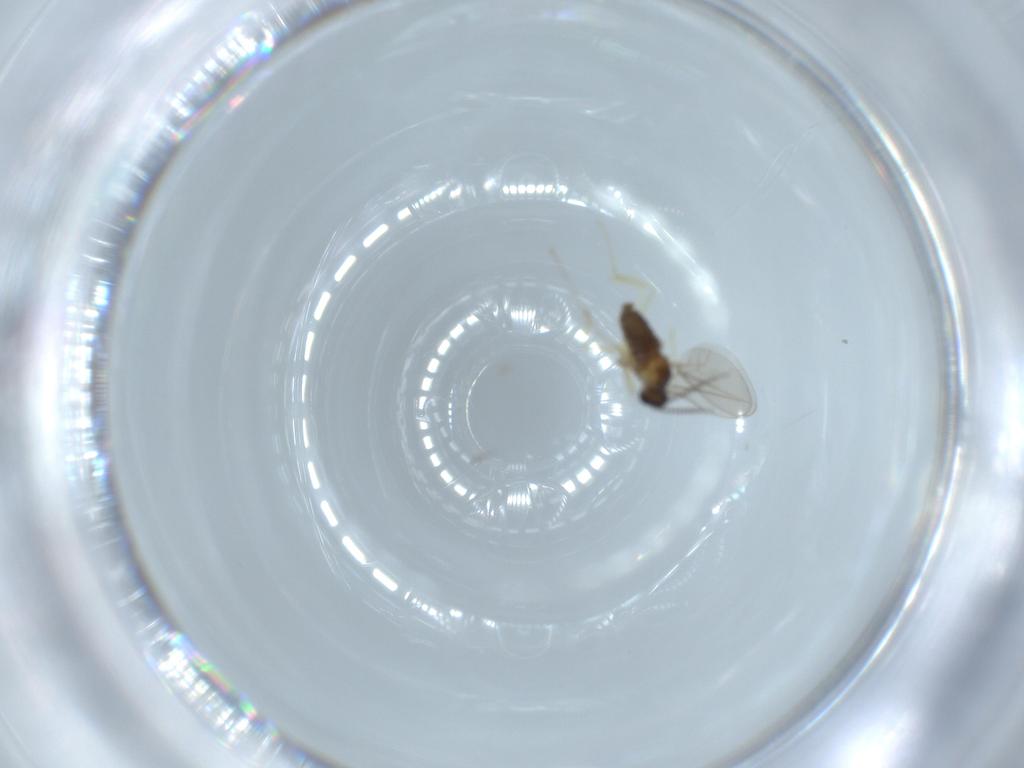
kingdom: Animalia
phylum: Arthropoda
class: Insecta
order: Diptera
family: Cecidomyiidae
